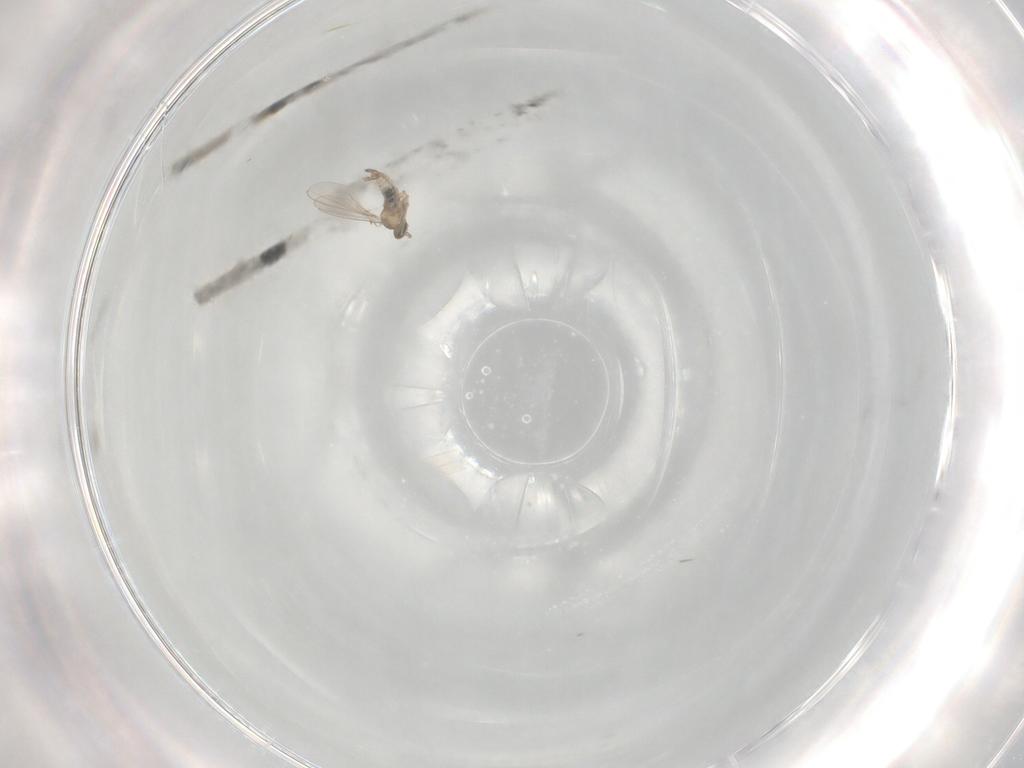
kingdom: Animalia
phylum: Arthropoda
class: Insecta
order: Diptera
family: Cecidomyiidae
